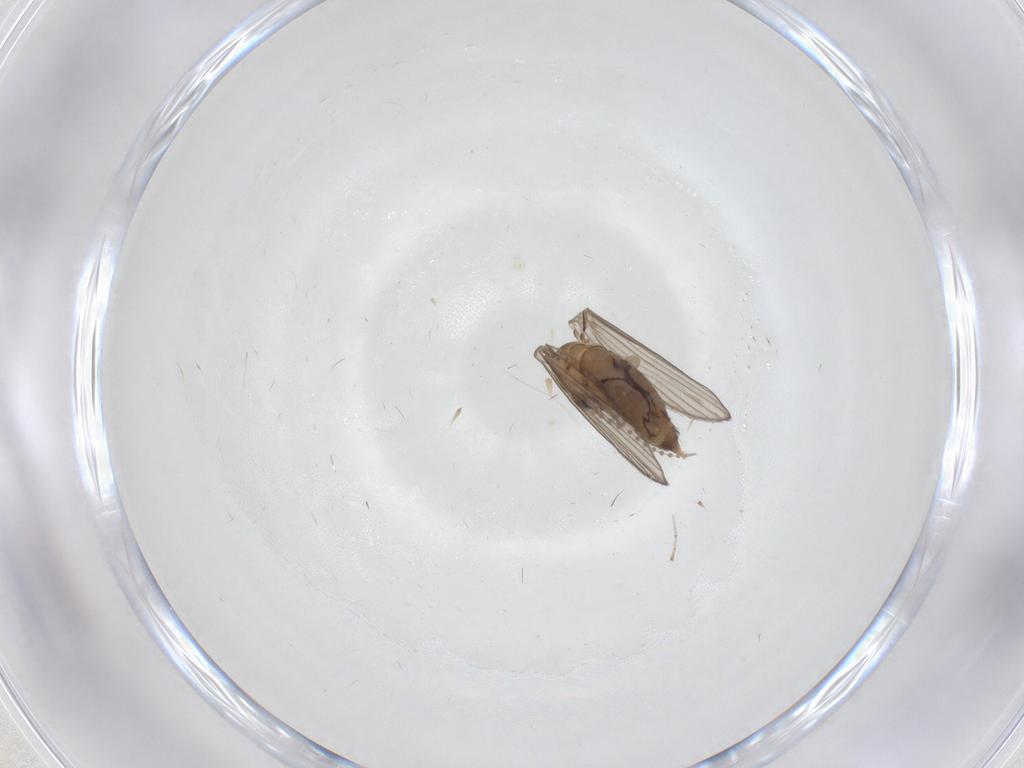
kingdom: Animalia
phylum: Arthropoda
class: Insecta
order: Diptera
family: Psychodidae
